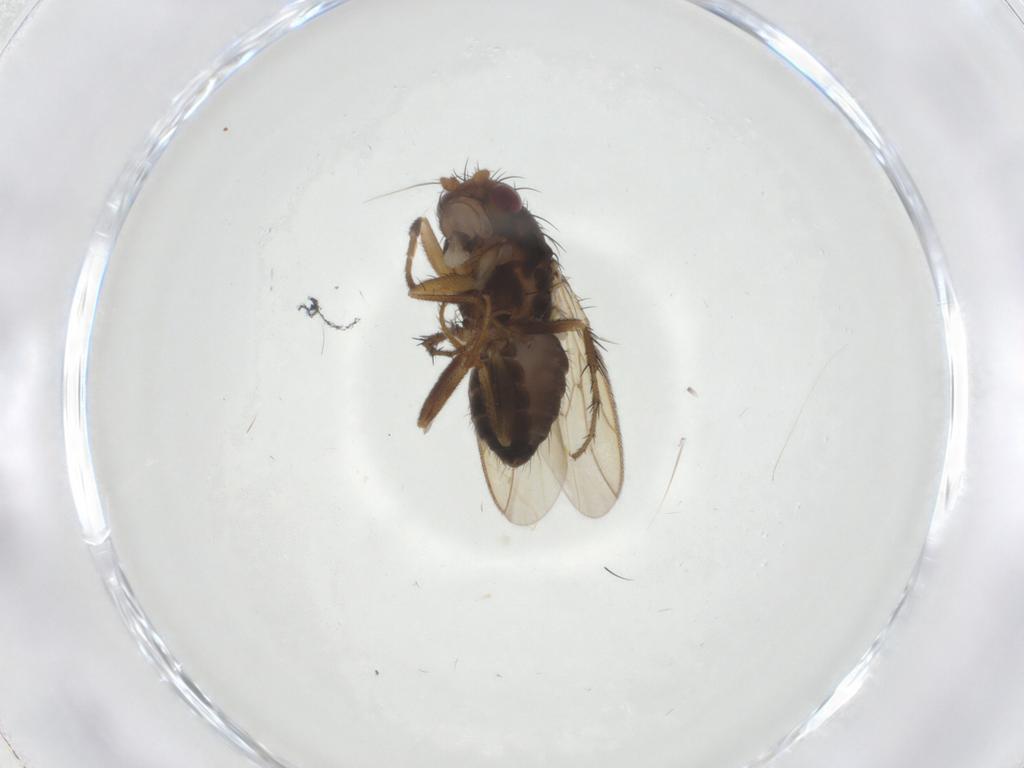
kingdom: Animalia
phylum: Arthropoda
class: Insecta
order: Diptera
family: Sphaeroceridae
